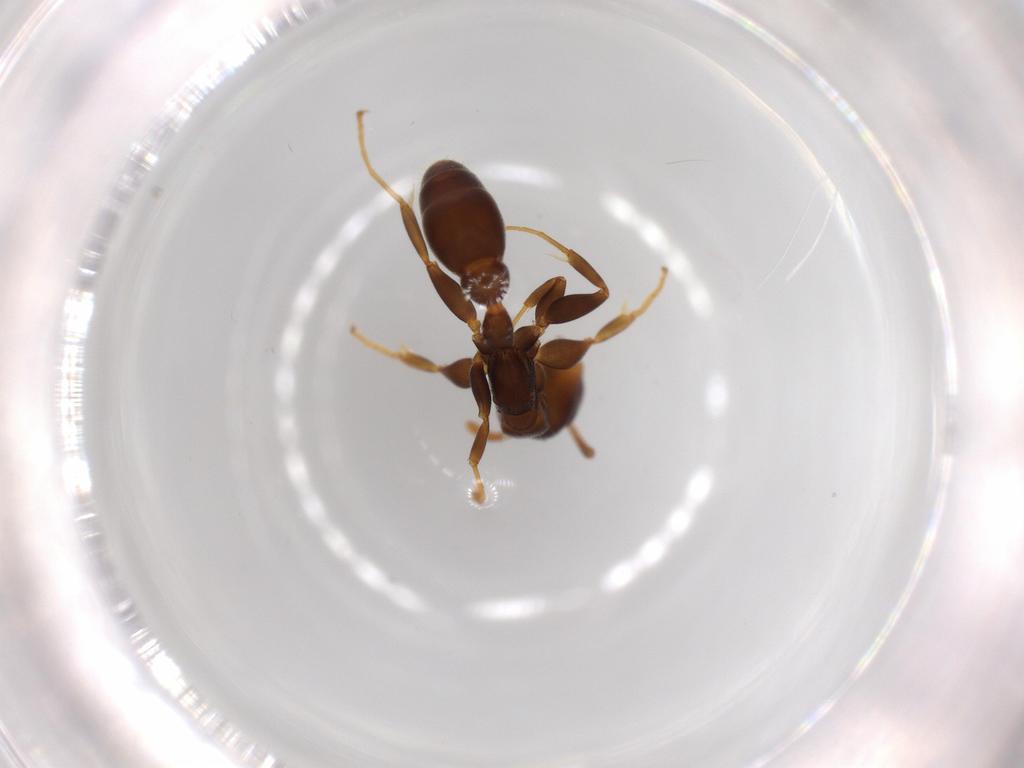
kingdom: Animalia
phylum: Arthropoda
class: Insecta
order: Hymenoptera
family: Formicidae
